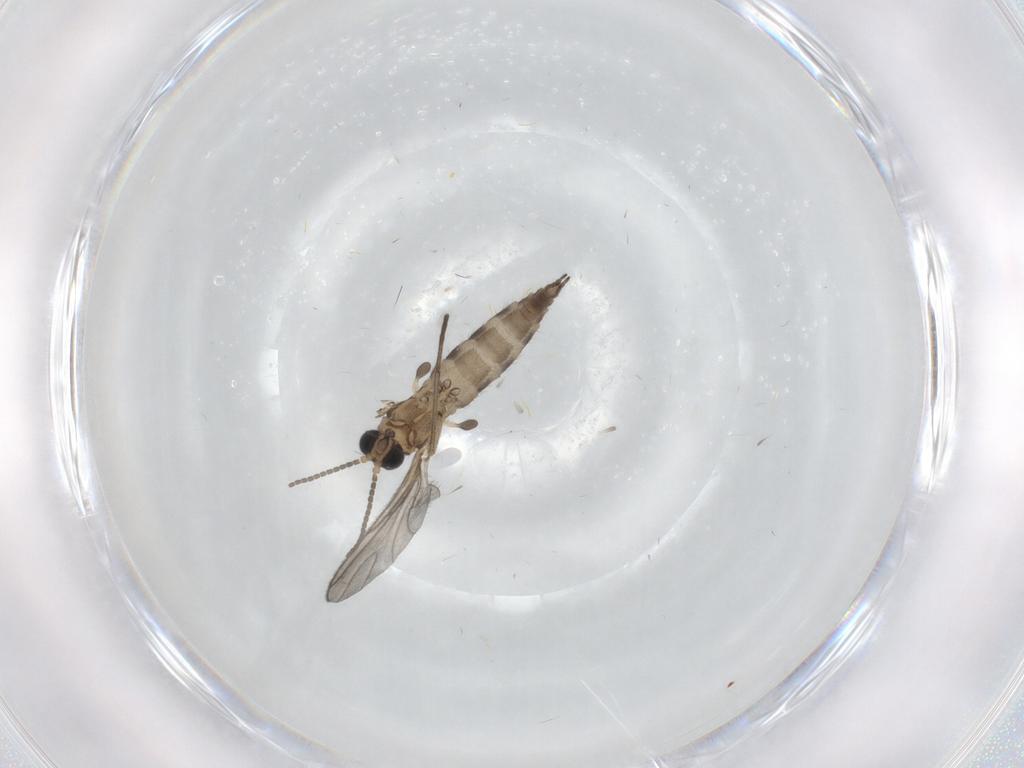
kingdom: Animalia
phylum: Arthropoda
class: Insecta
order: Diptera
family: Sciaridae
